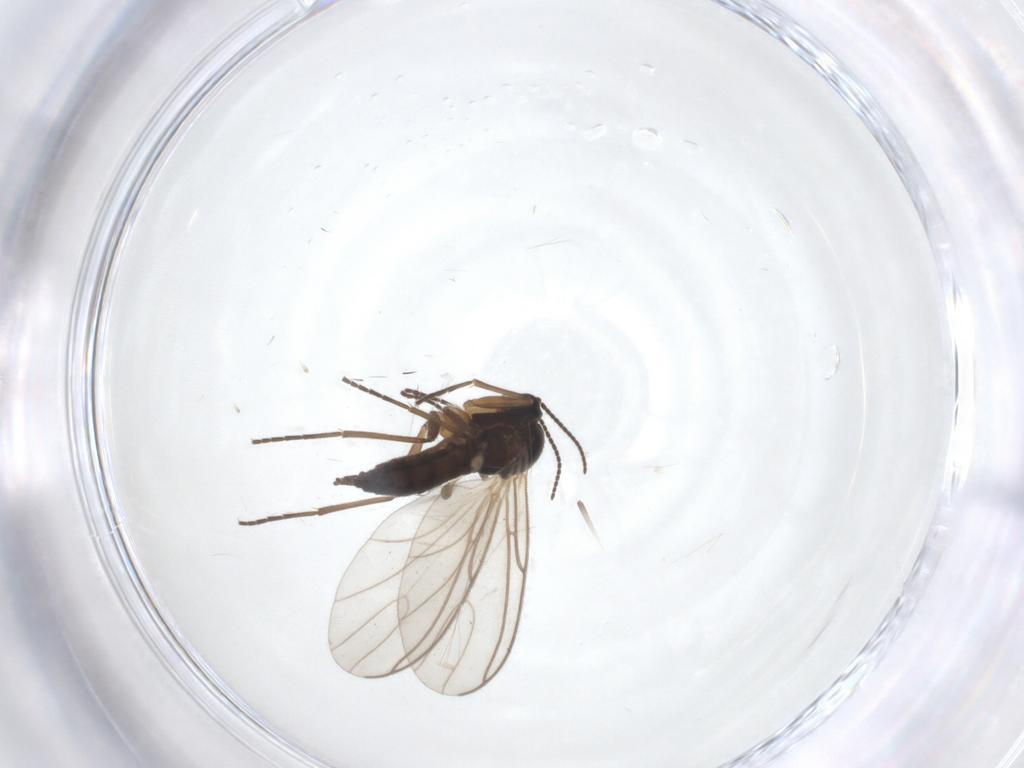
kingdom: Animalia
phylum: Arthropoda
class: Insecta
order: Diptera
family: Sciaridae
